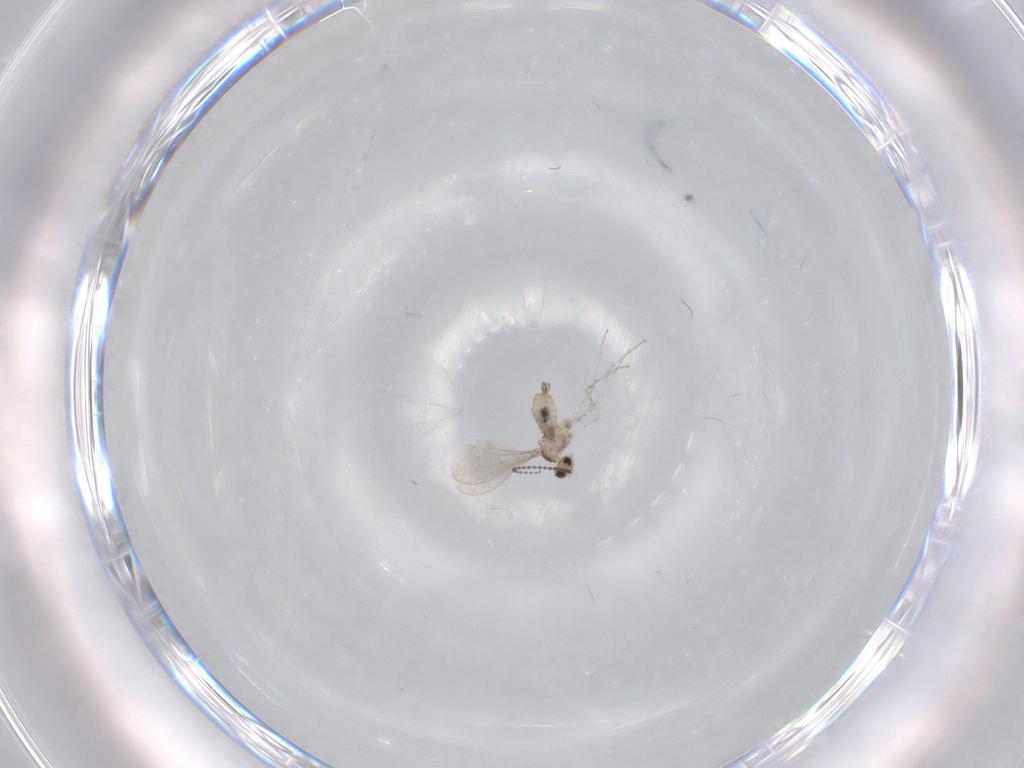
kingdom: Animalia
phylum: Arthropoda
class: Insecta
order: Diptera
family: Cecidomyiidae
